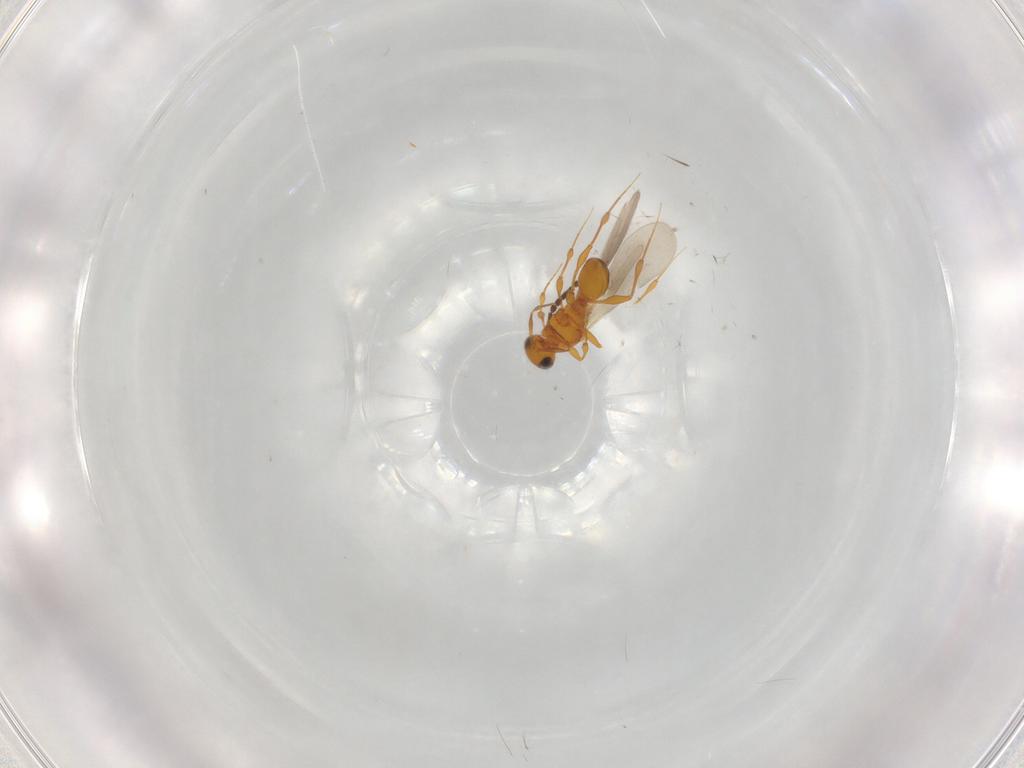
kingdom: Animalia
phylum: Arthropoda
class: Insecta
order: Hymenoptera
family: Platygastridae
